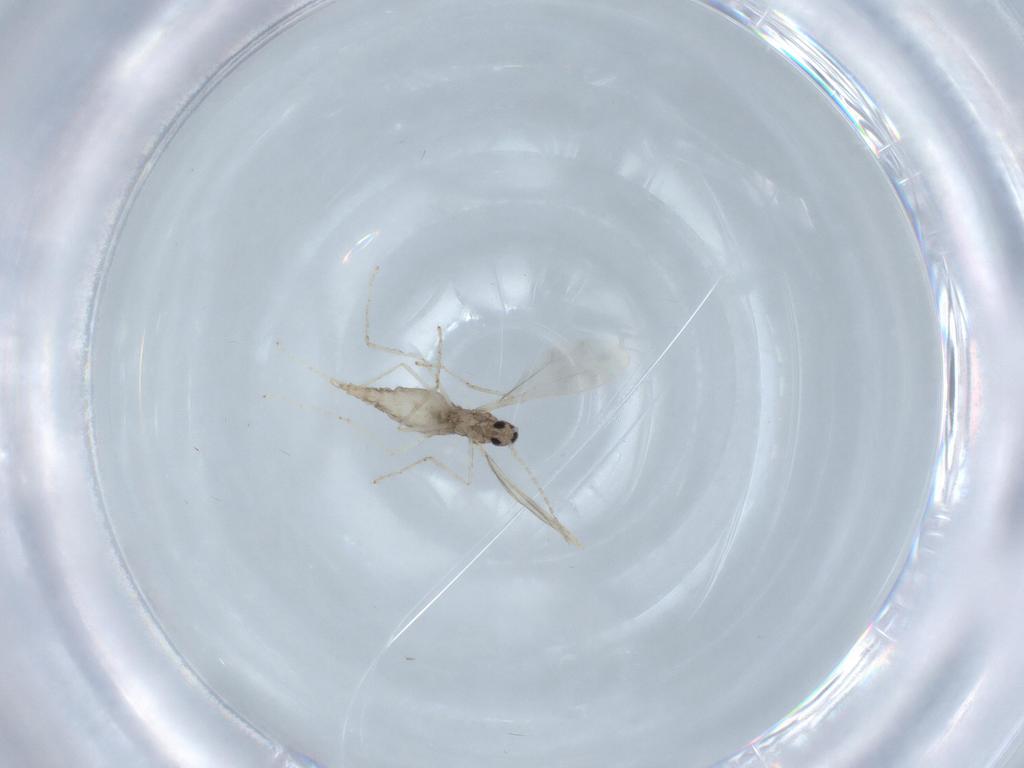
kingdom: Animalia
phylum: Arthropoda
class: Insecta
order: Diptera
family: Cecidomyiidae
